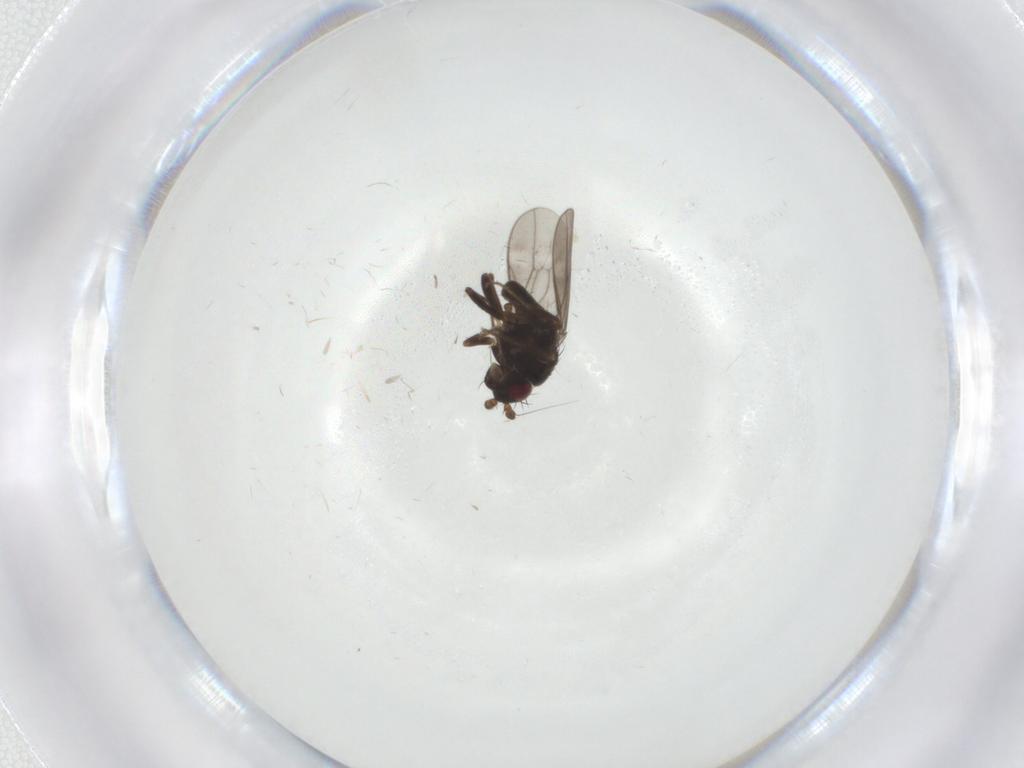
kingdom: Animalia
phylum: Arthropoda
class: Insecta
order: Diptera
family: Sphaeroceridae
